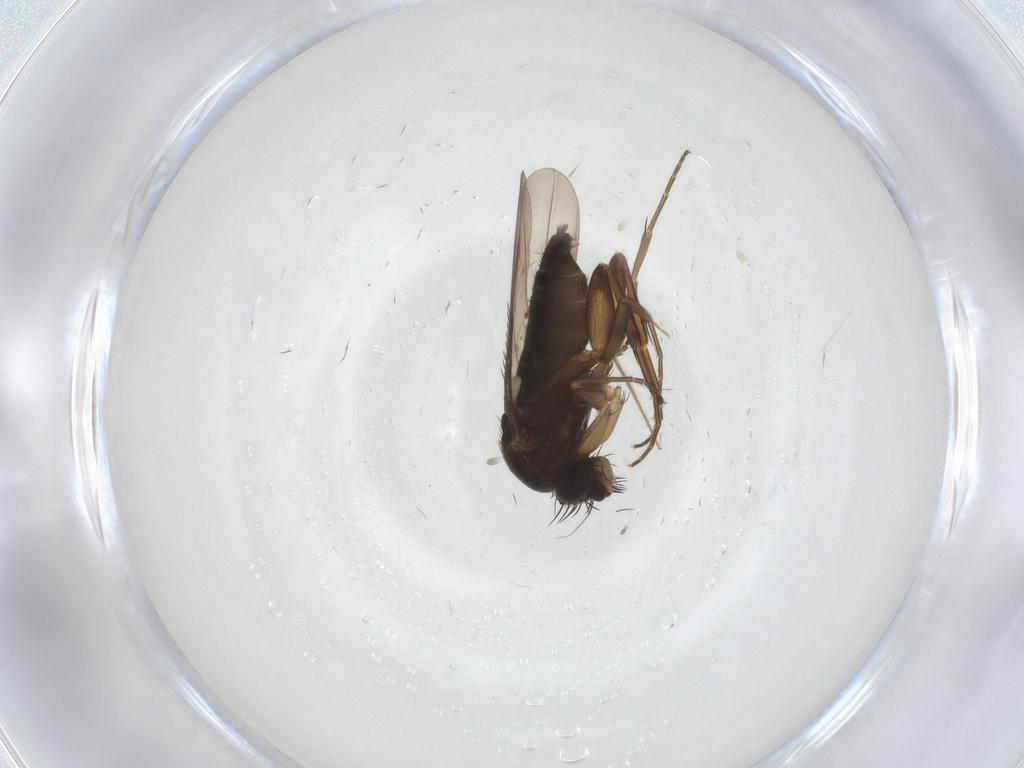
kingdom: Animalia
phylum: Arthropoda
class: Insecta
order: Diptera
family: Phoridae
